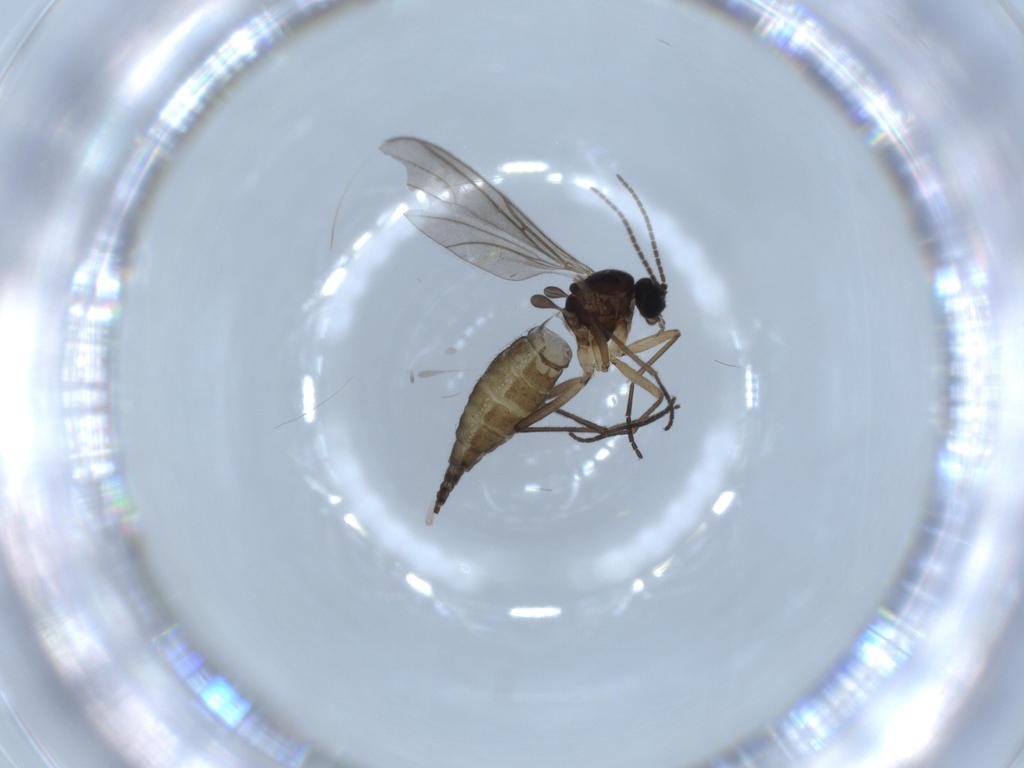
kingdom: Animalia
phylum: Arthropoda
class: Insecta
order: Diptera
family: Sciaridae
